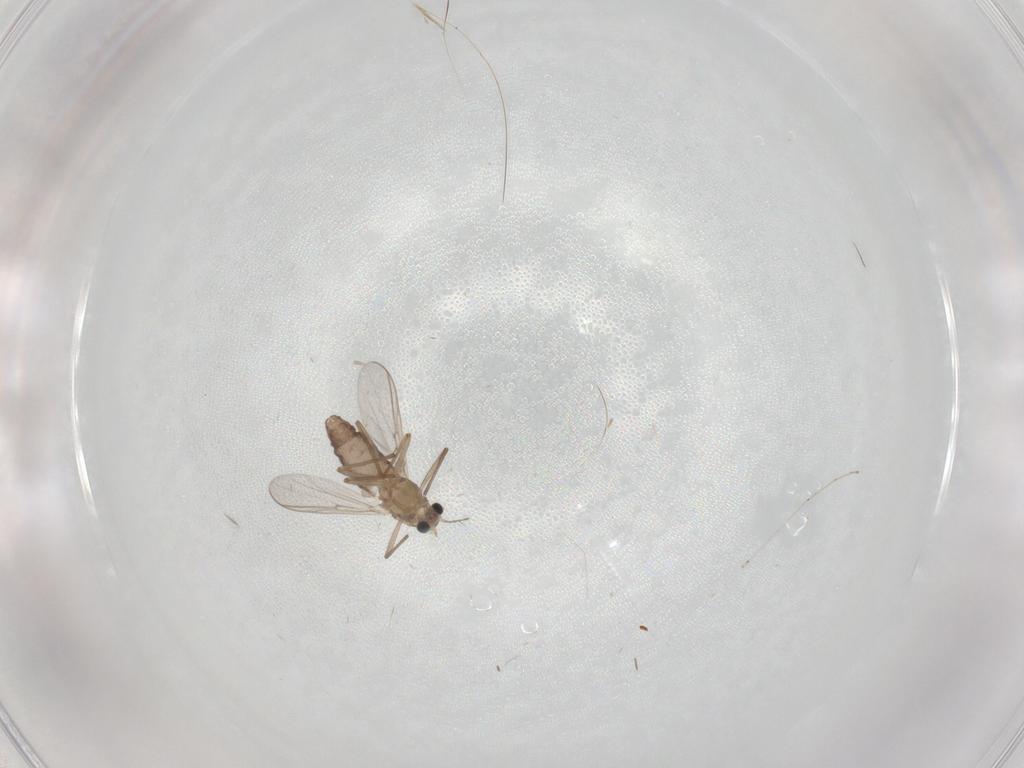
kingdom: Animalia
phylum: Arthropoda
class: Insecta
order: Diptera
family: Chironomidae
